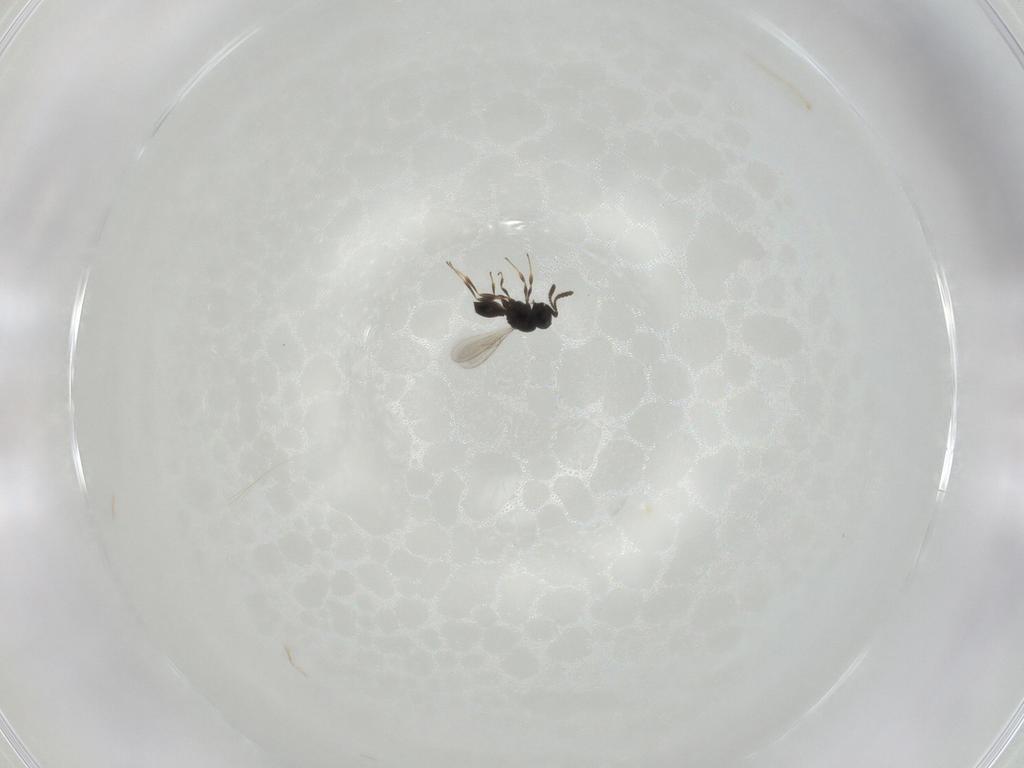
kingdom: Animalia
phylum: Arthropoda
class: Insecta
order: Hymenoptera
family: Scelionidae
